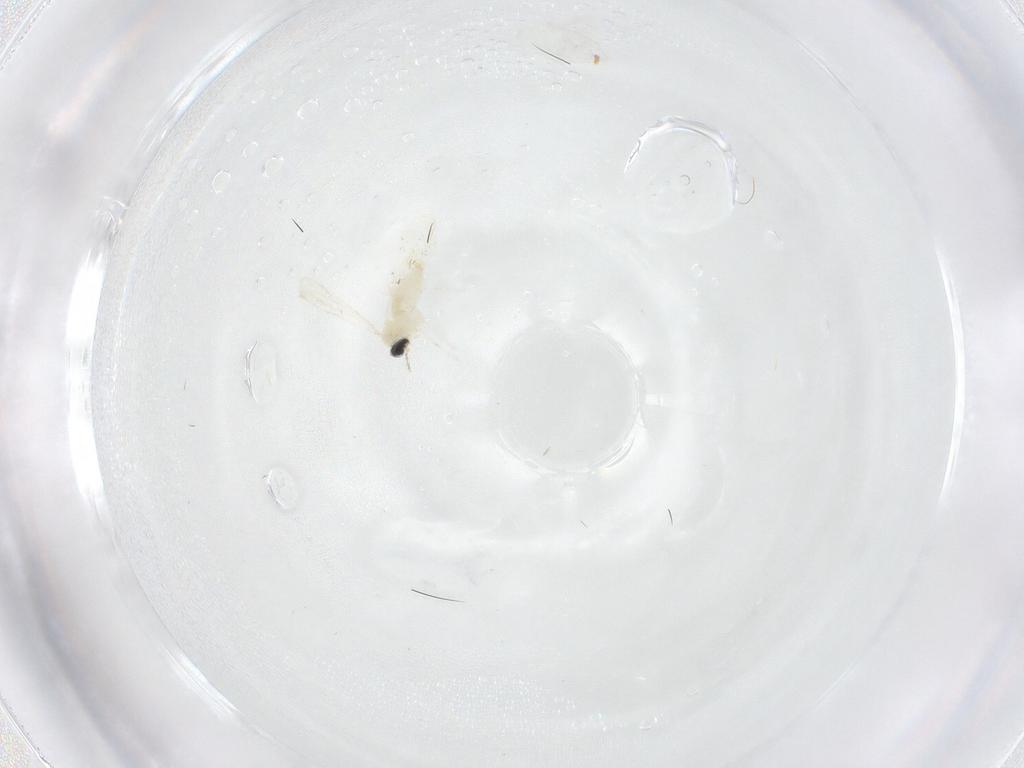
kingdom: Animalia
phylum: Arthropoda
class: Insecta
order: Diptera
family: Cecidomyiidae
